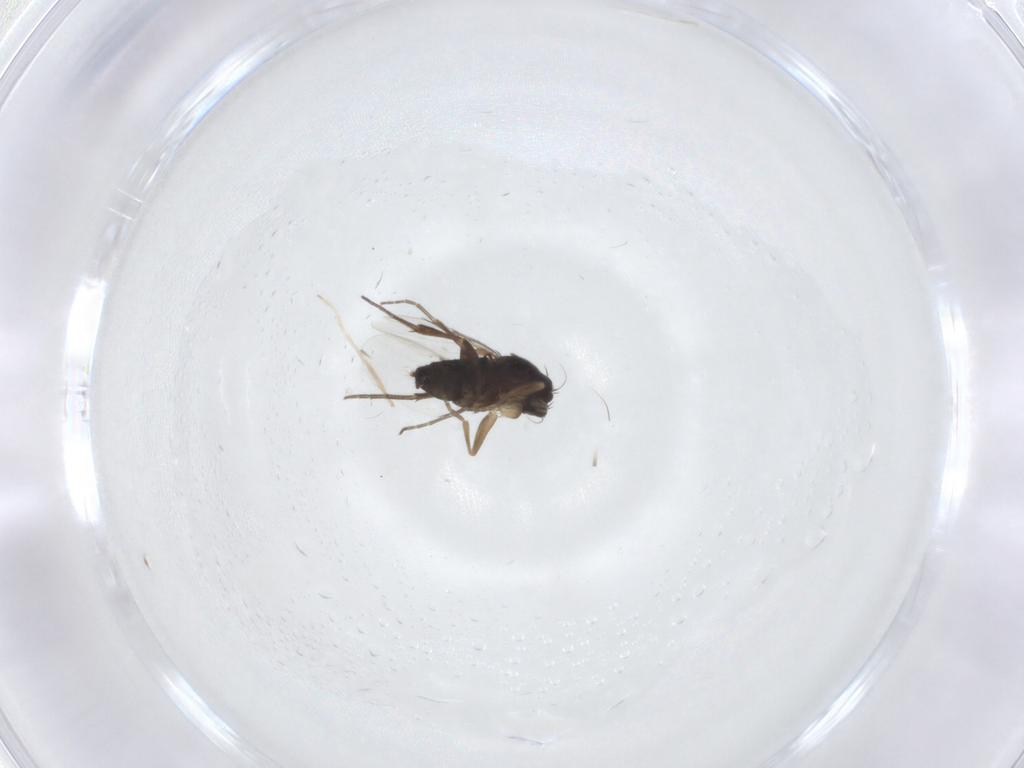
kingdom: Animalia
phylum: Arthropoda
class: Insecta
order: Diptera
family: Phoridae
